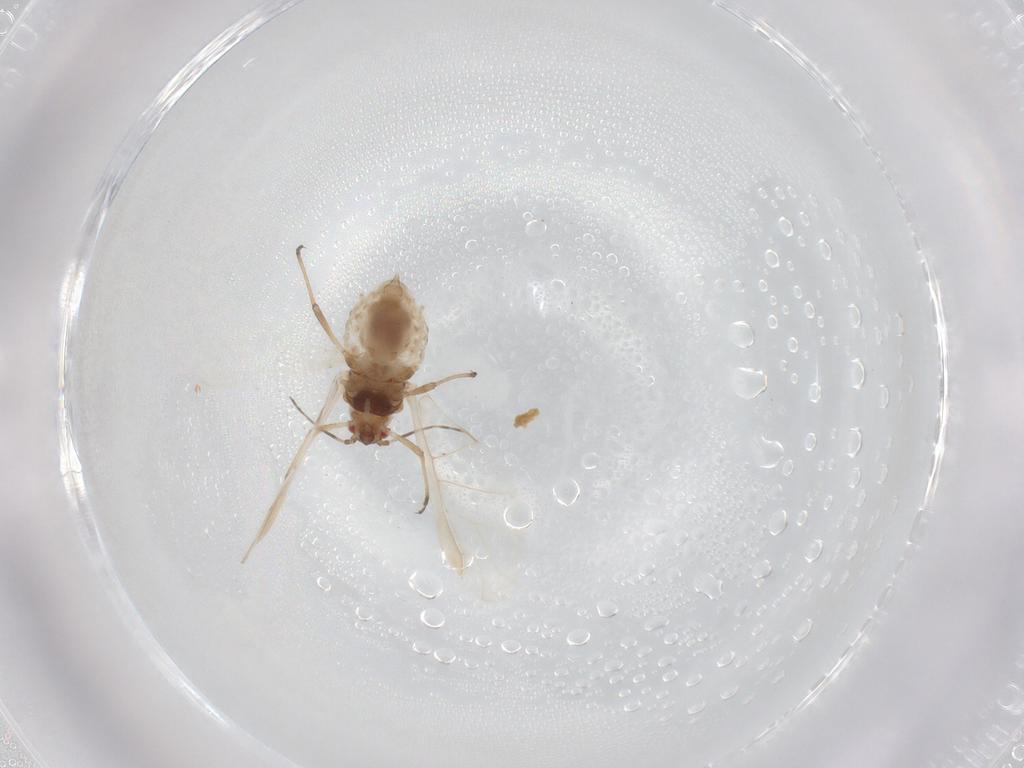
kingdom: Animalia
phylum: Arthropoda
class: Insecta
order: Hemiptera
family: Aphididae
